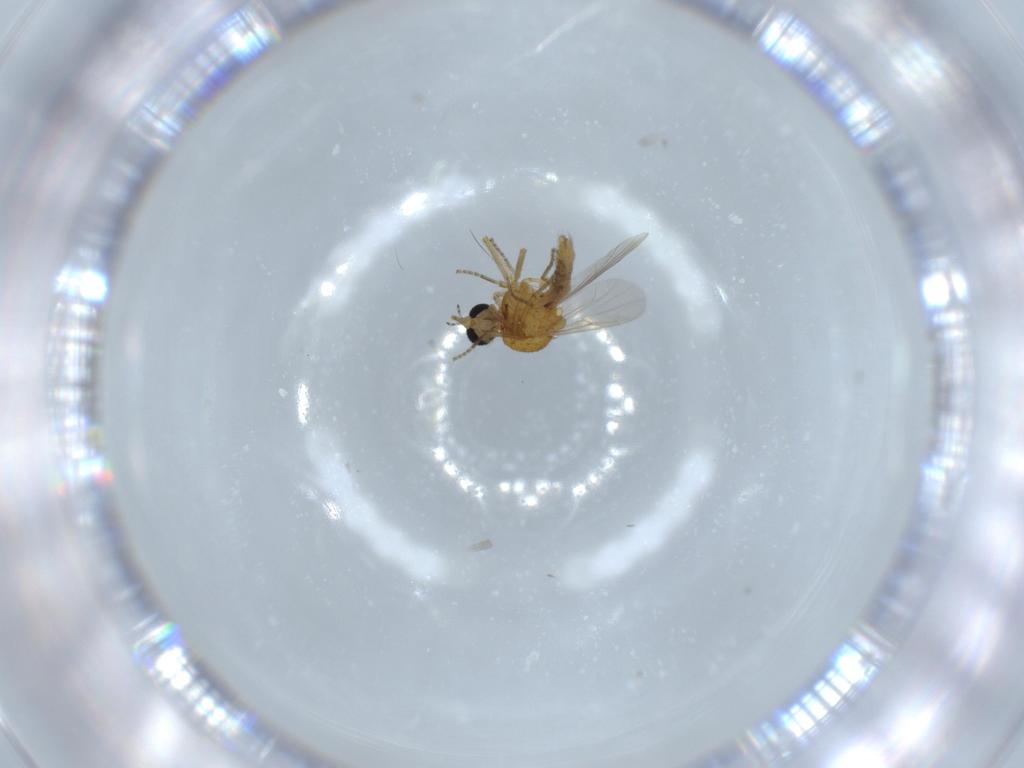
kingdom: Animalia
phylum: Arthropoda
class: Insecta
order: Diptera
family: Ceratopogonidae
